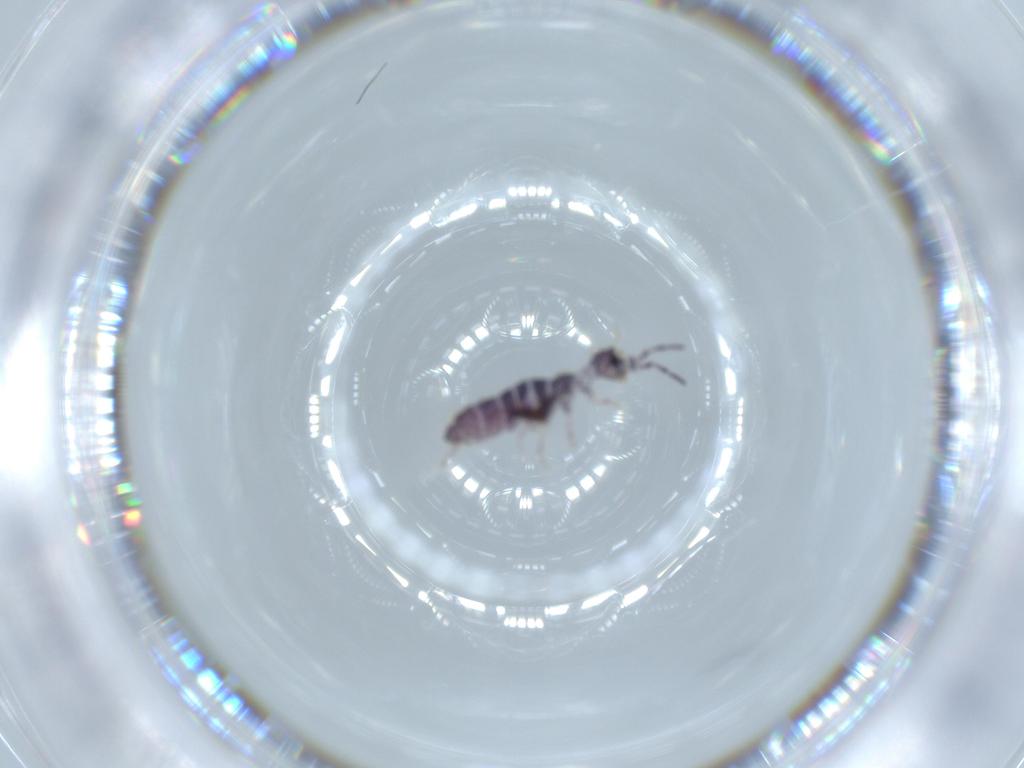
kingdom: Animalia
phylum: Arthropoda
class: Collembola
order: Entomobryomorpha
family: Isotomidae
